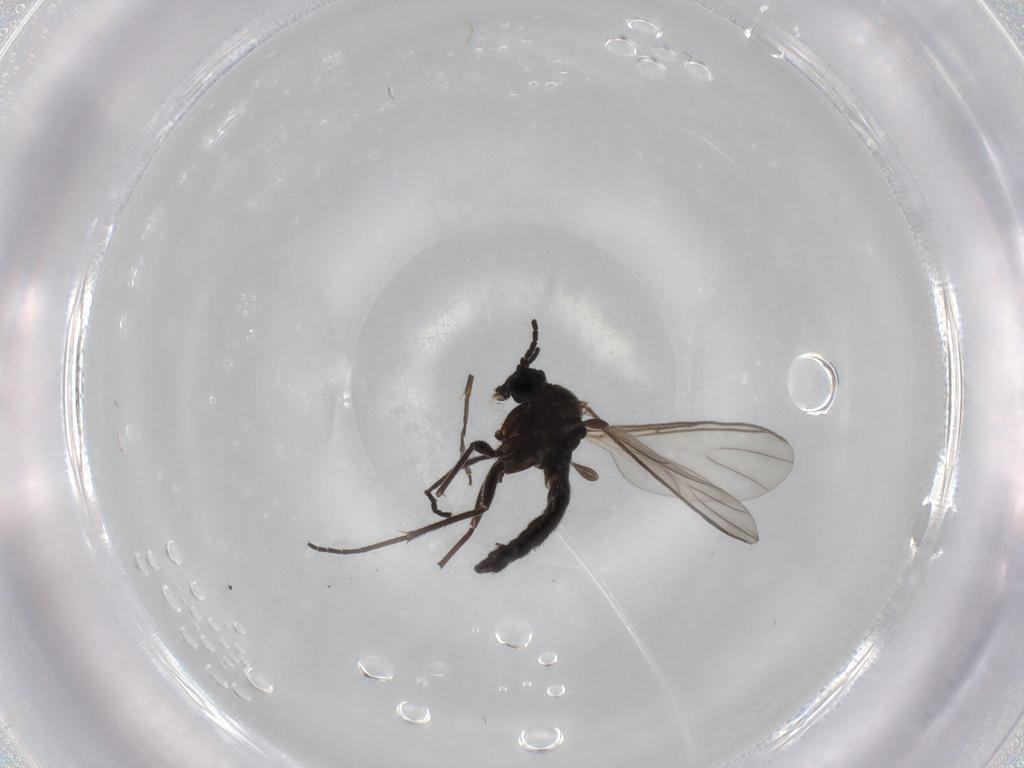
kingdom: Animalia
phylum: Arthropoda
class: Insecta
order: Diptera
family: Sciaridae
